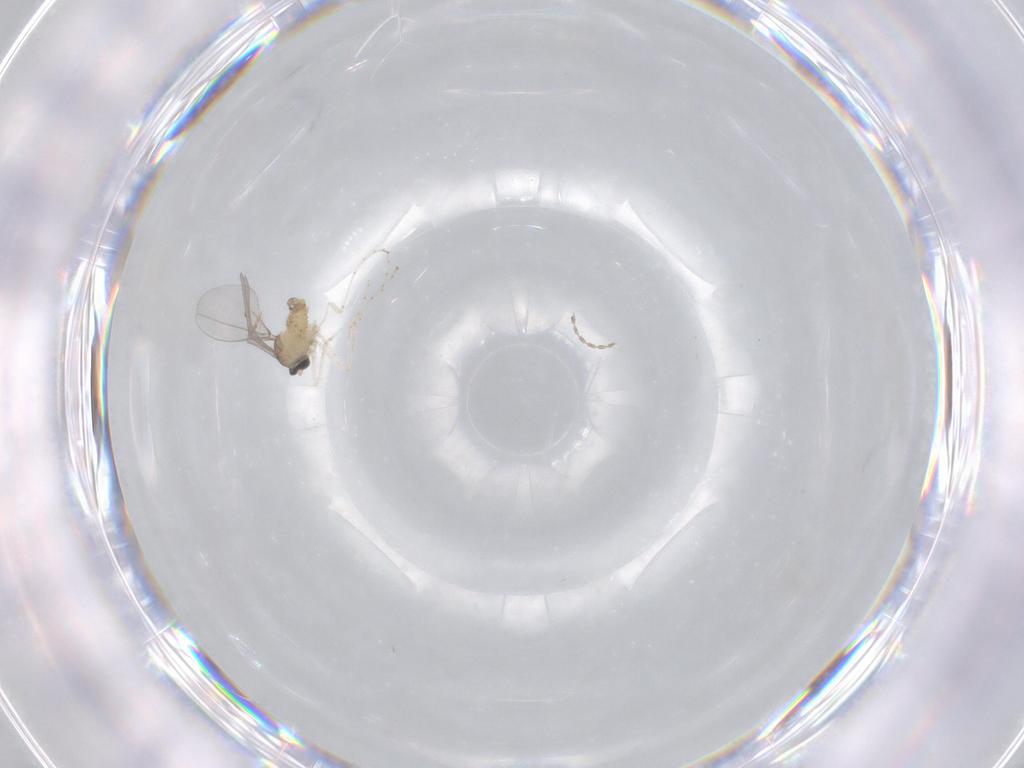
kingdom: Animalia
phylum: Arthropoda
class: Insecta
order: Diptera
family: Cecidomyiidae
